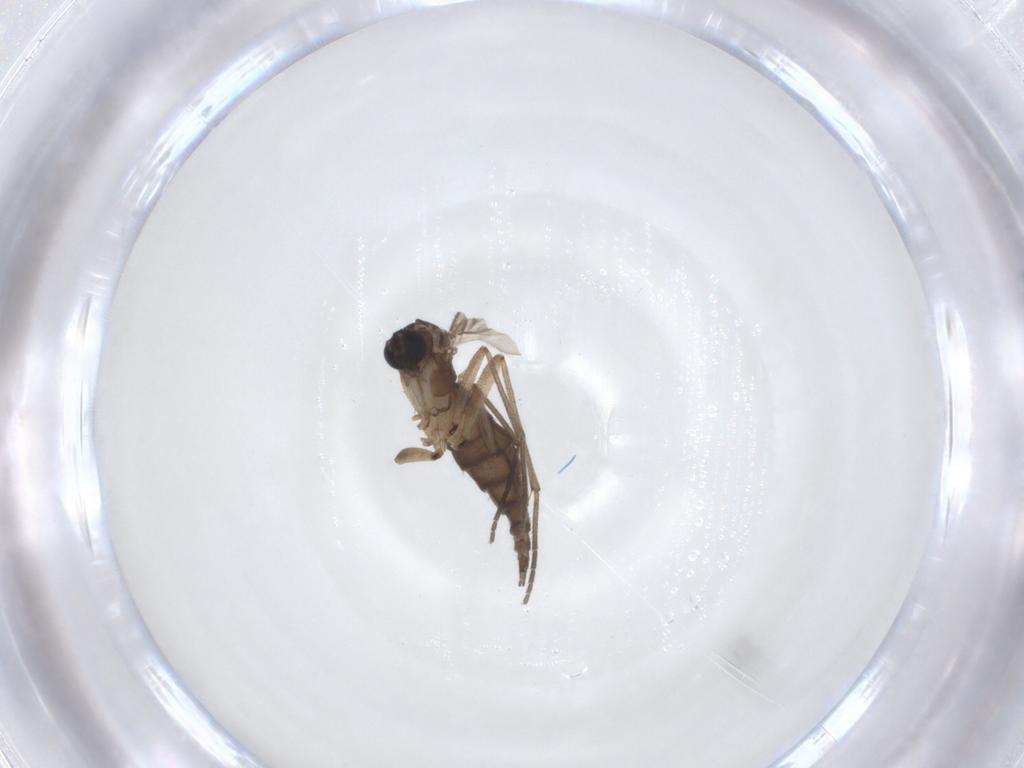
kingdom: Animalia
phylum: Arthropoda
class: Insecta
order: Diptera
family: Sciaridae
